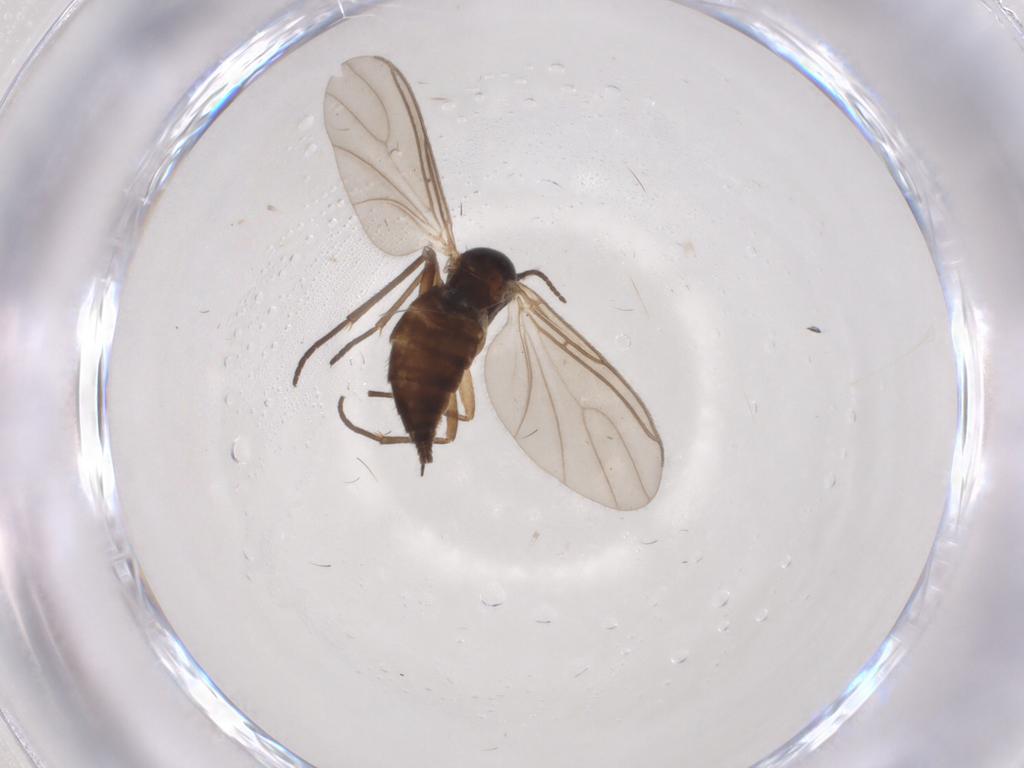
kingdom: Animalia
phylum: Arthropoda
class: Insecta
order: Diptera
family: Sciaridae
